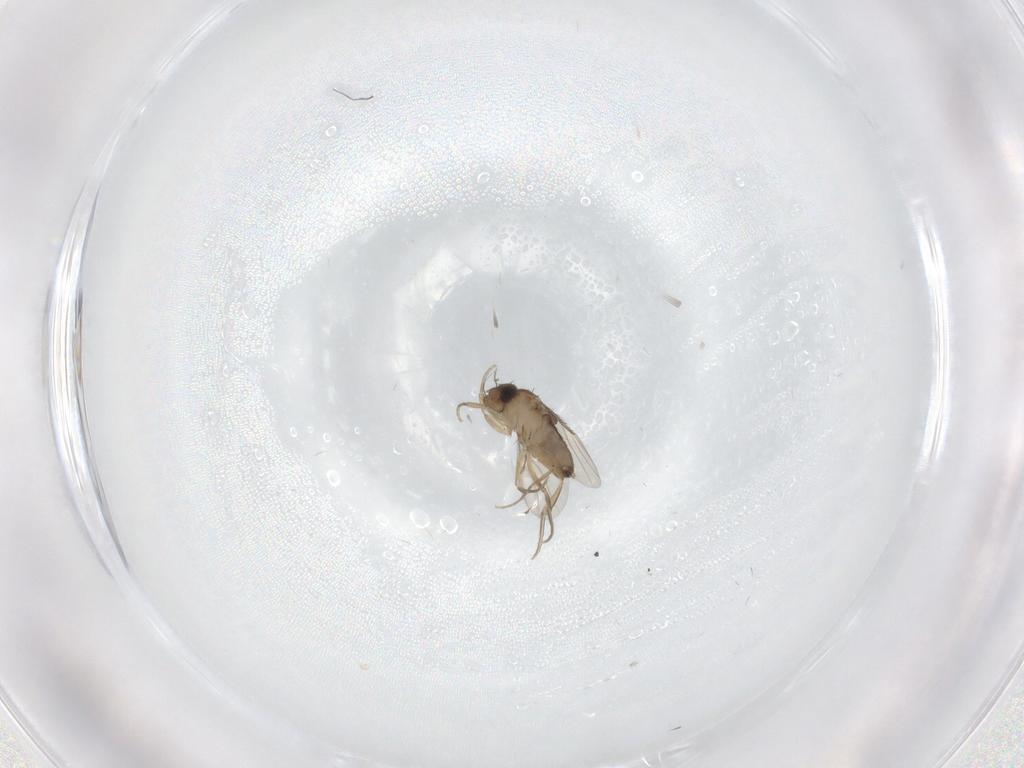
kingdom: Animalia
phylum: Arthropoda
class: Insecta
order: Diptera
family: Phoridae
